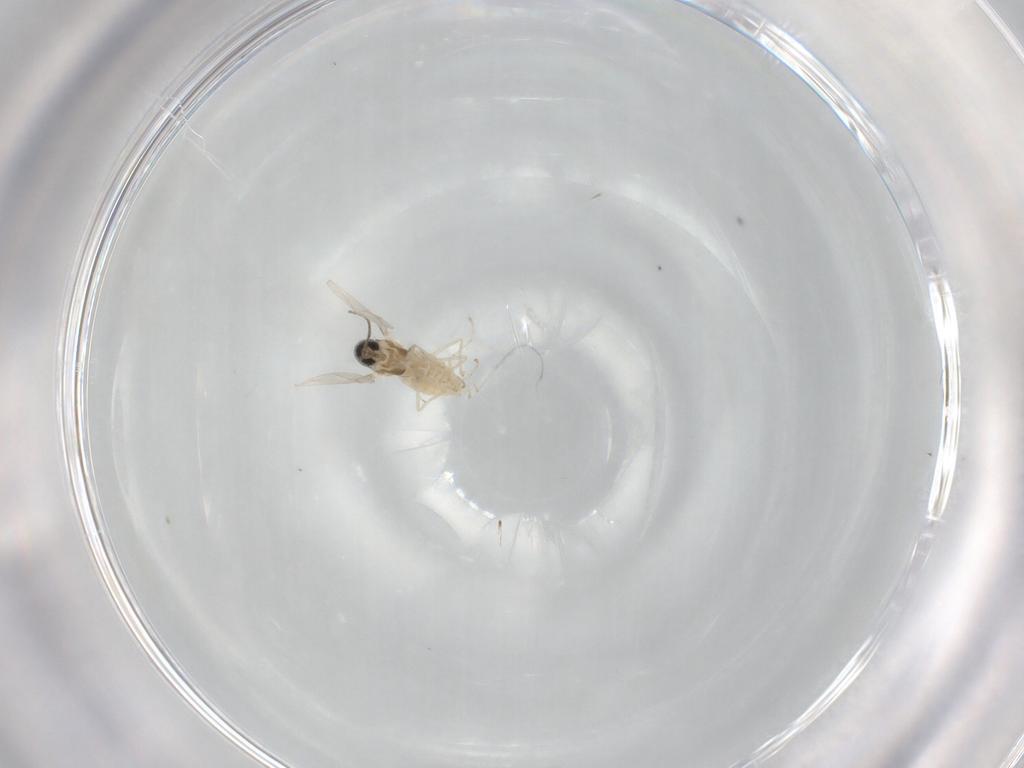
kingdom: Animalia
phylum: Arthropoda
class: Insecta
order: Diptera
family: Cecidomyiidae
